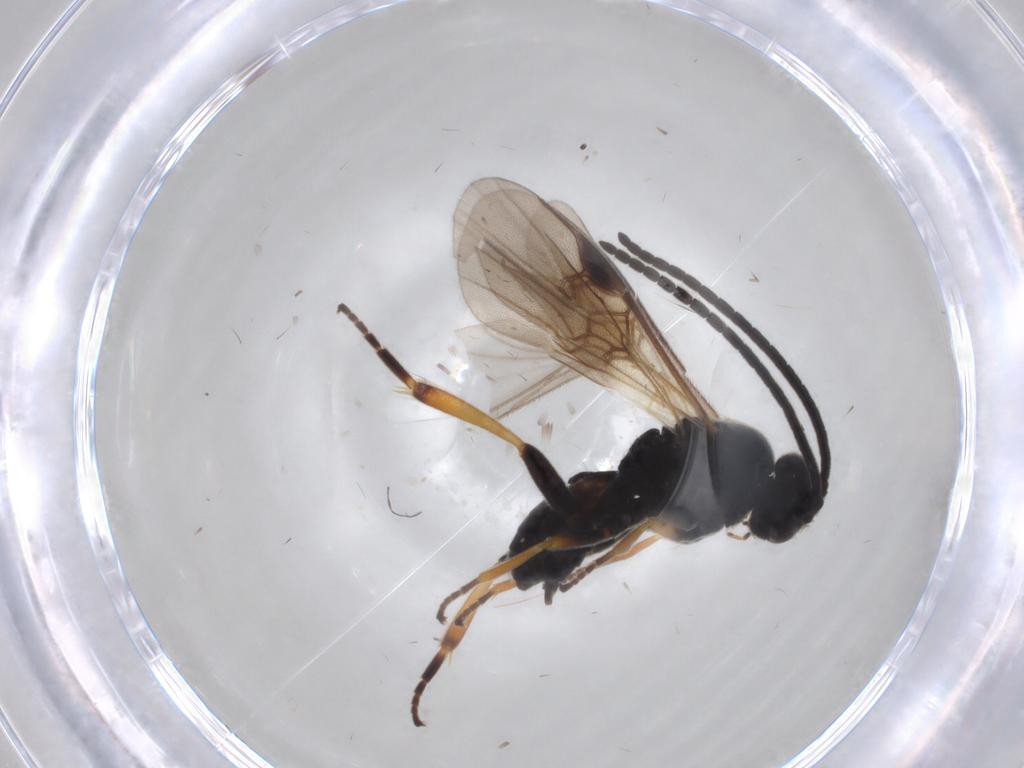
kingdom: Animalia
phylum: Arthropoda
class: Insecta
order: Hymenoptera
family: Braconidae
